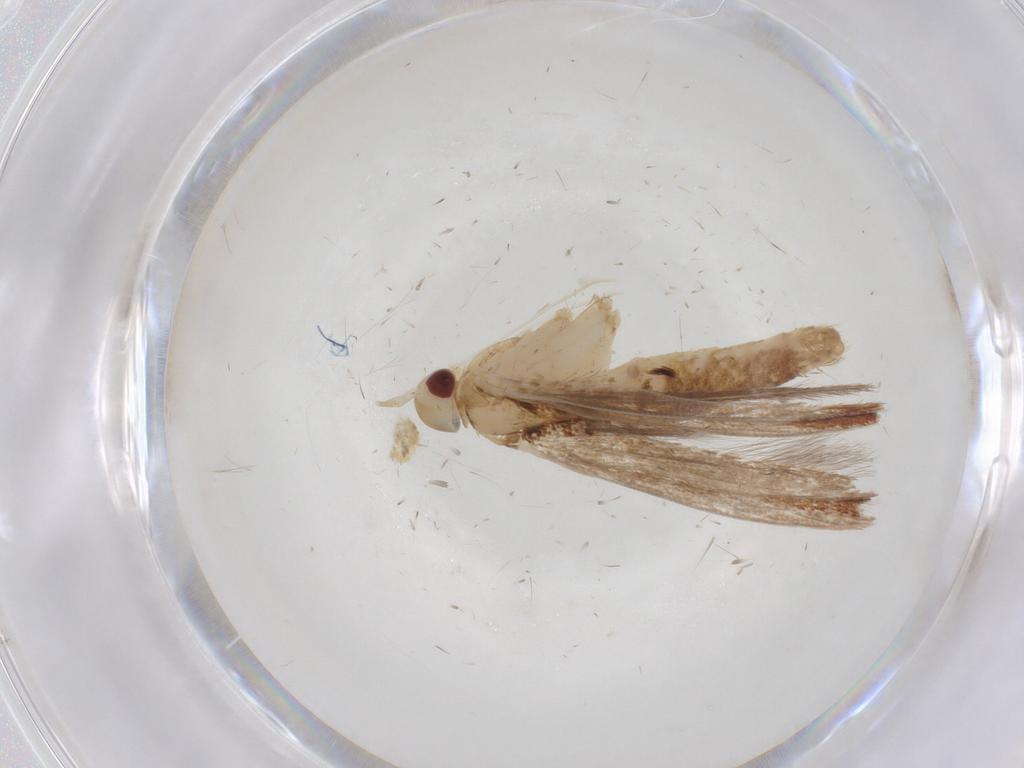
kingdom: Animalia
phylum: Arthropoda
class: Insecta
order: Lepidoptera
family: Cosmopterigidae
